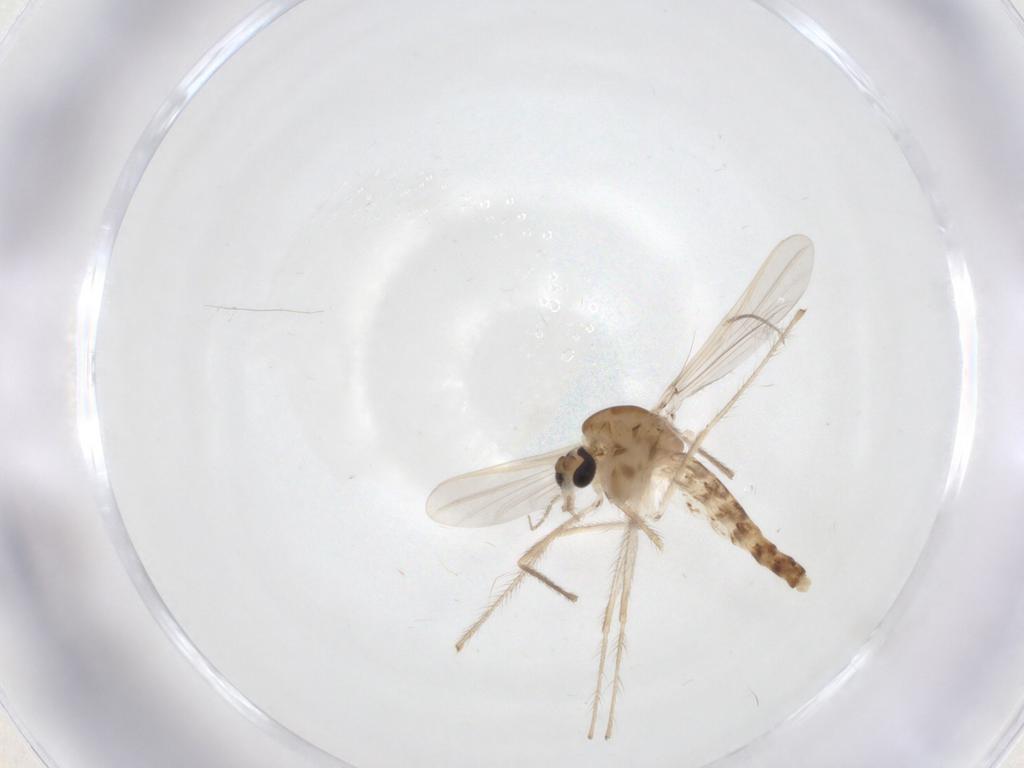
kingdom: Animalia
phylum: Arthropoda
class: Insecta
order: Diptera
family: Chironomidae
